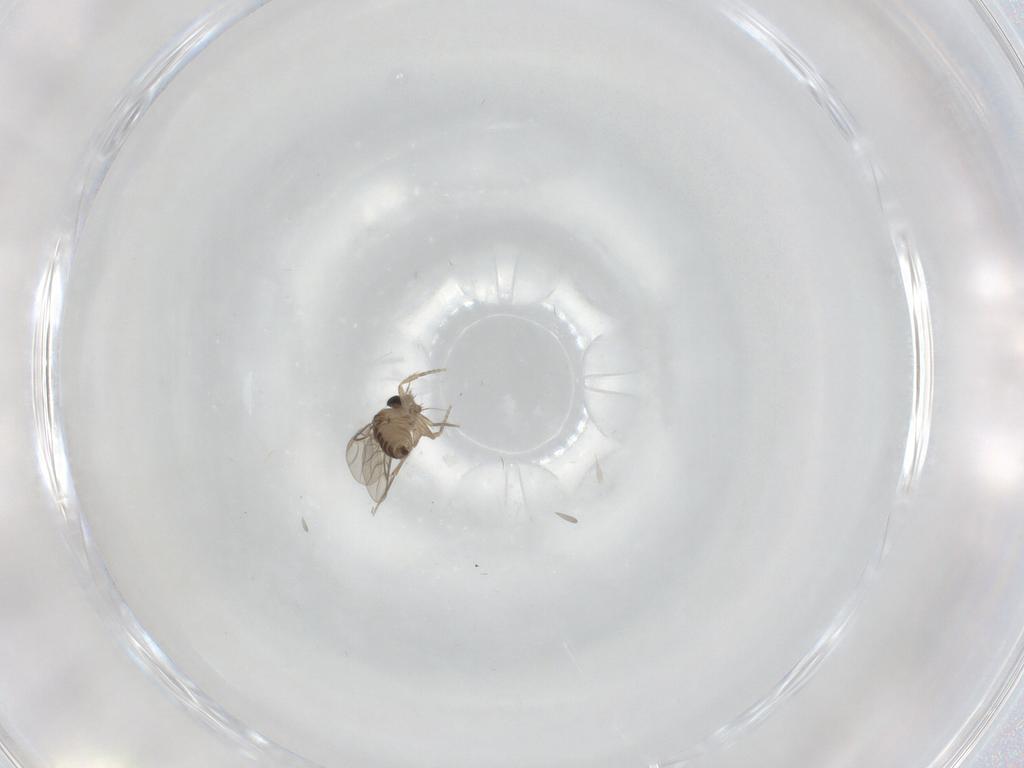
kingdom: Animalia
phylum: Arthropoda
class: Insecta
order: Diptera
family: Phoridae
